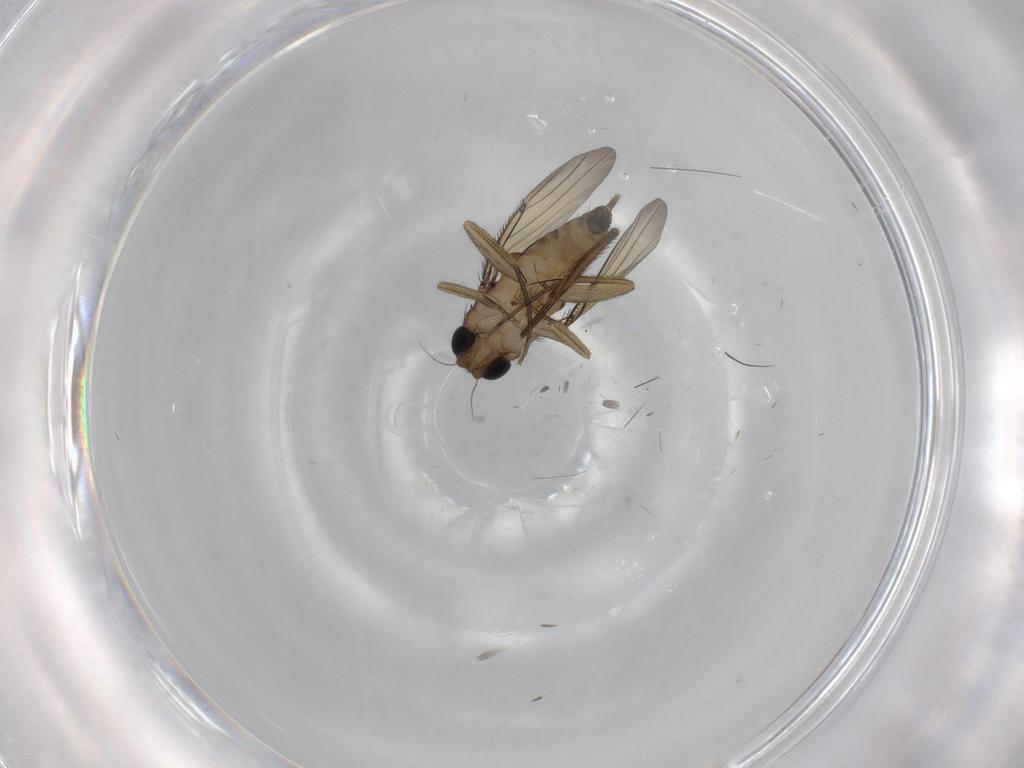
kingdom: Animalia
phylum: Arthropoda
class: Insecta
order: Diptera
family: Phoridae
